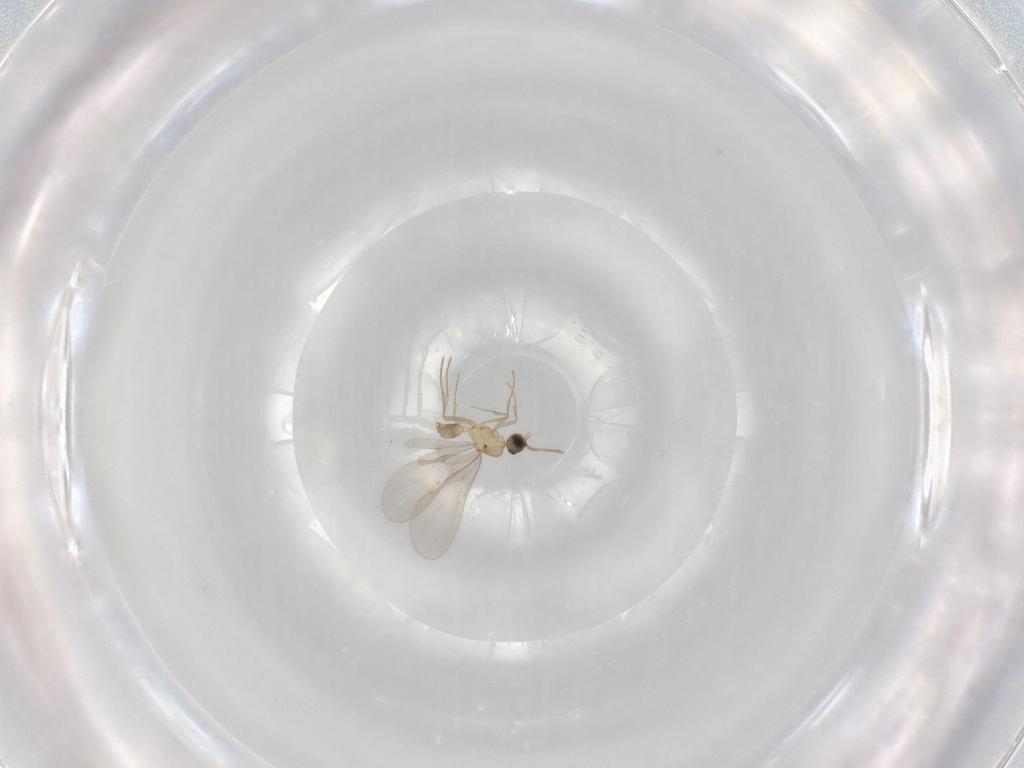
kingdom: Animalia
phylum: Arthropoda
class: Insecta
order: Hymenoptera
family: Formicidae
